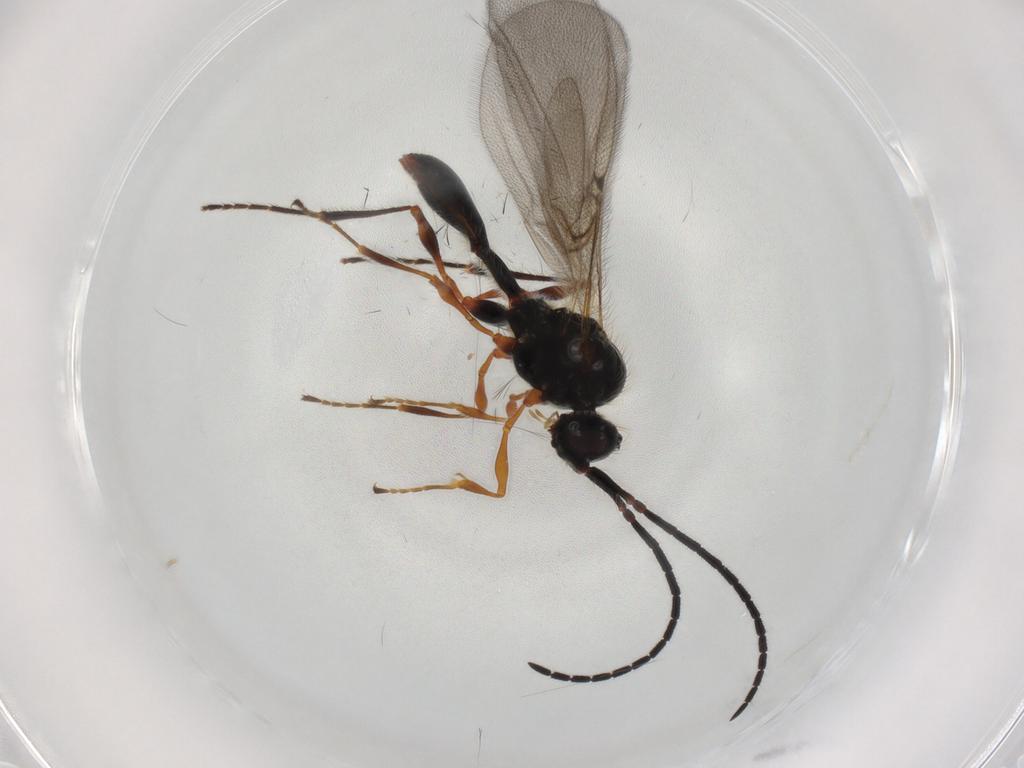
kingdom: Animalia
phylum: Arthropoda
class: Insecta
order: Hymenoptera
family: Diapriidae
